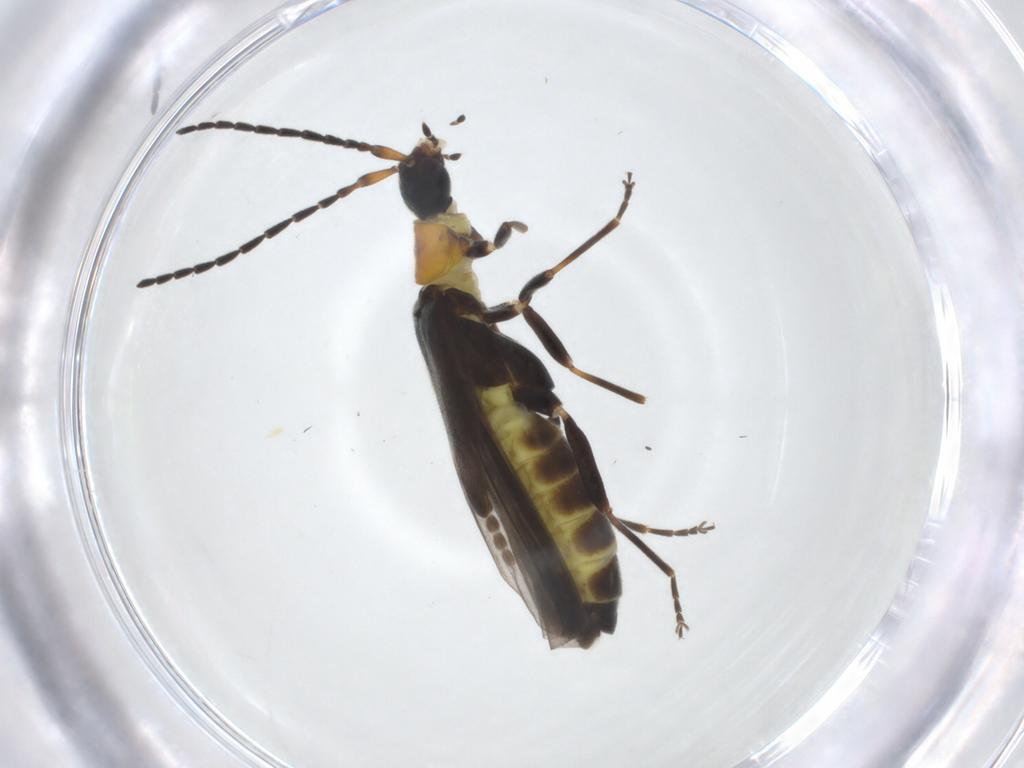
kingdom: Animalia
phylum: Arthropoda
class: Insecta
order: Coleoptera
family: Cantharidae
